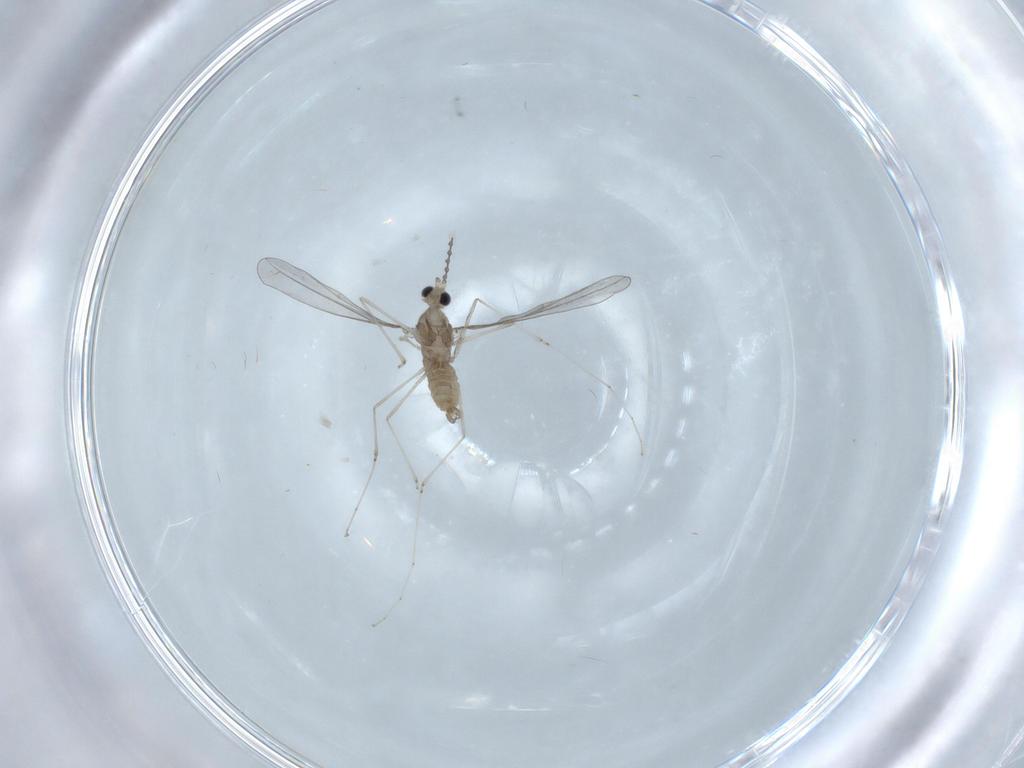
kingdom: Animalia
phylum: Arthropoda
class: Insecta
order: Diptera
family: Cecidomyiidae
